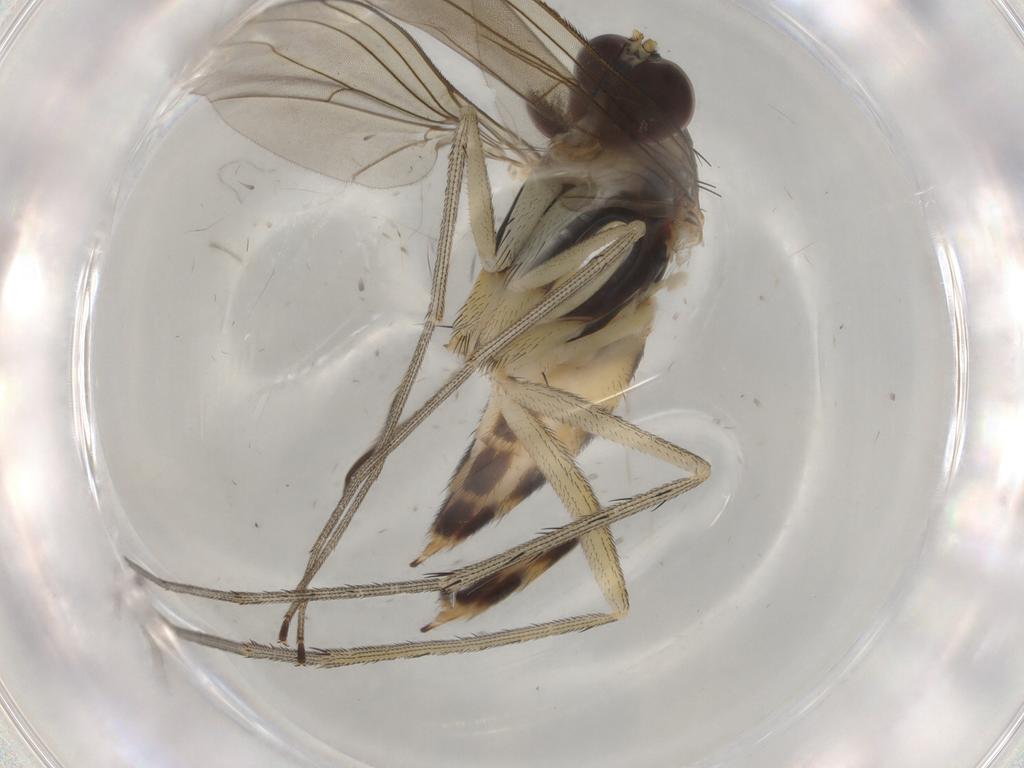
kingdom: Animalia
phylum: Arthropoda
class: Insecta
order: Diptera
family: Dolichopodidae
